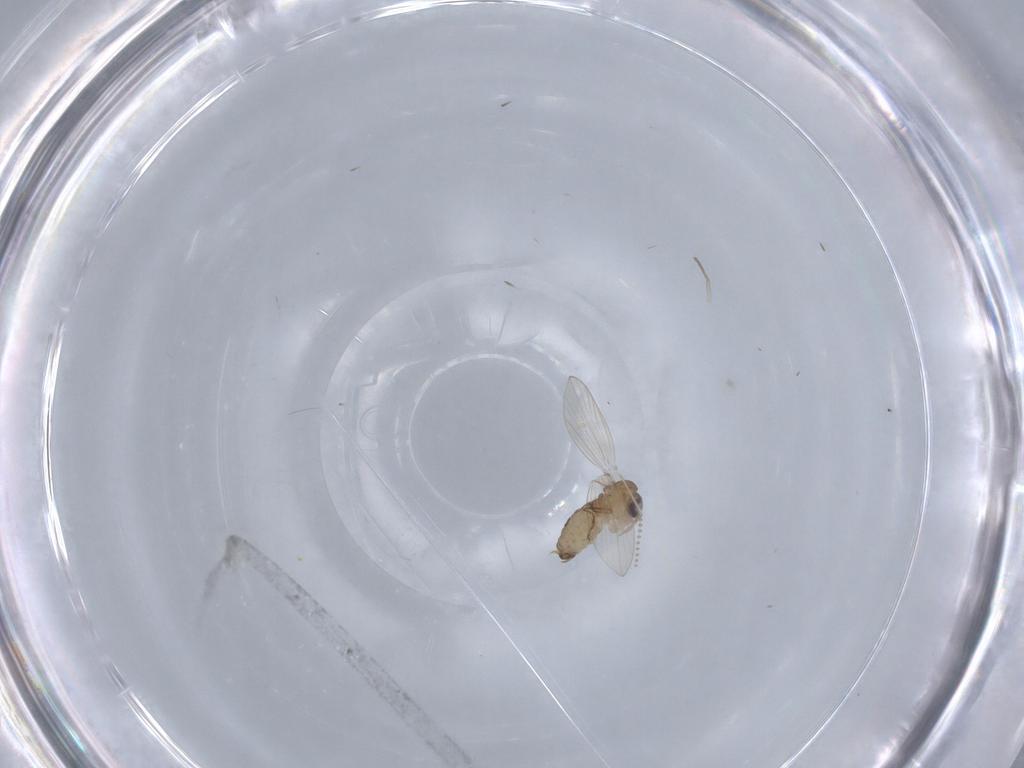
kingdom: Animalia
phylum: Arthropoda
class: Insecta
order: Diptera
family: Psychodidae
